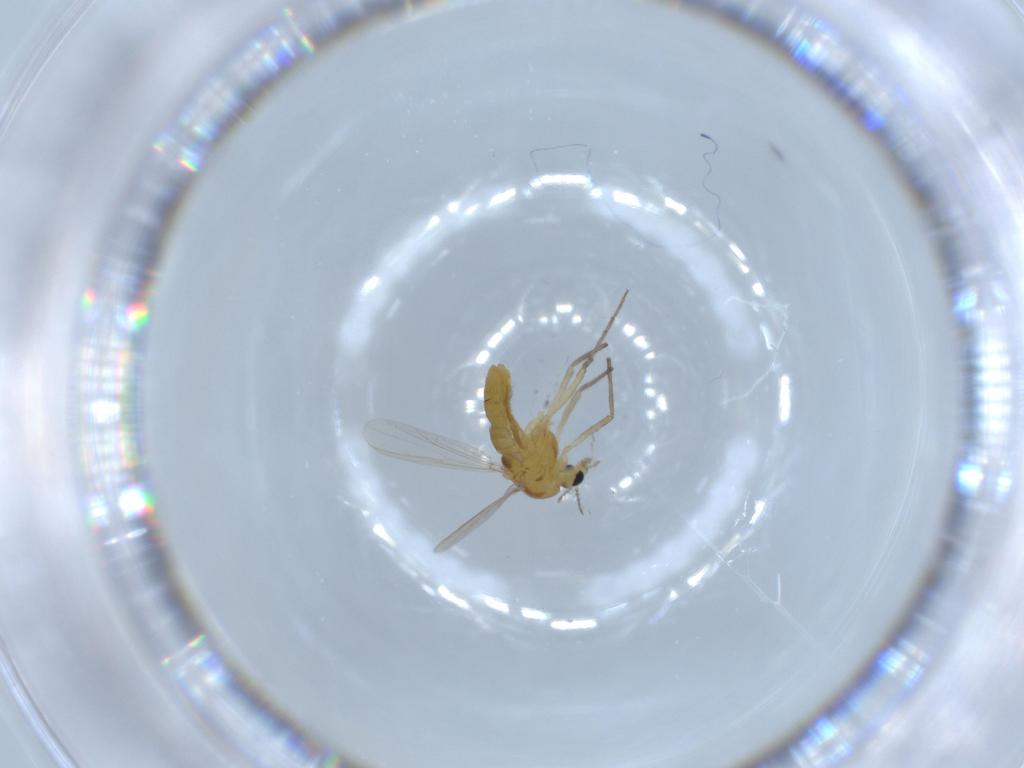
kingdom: Animalia
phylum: Arthropoda
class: Insecta
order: Diptera
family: Chironomidae
